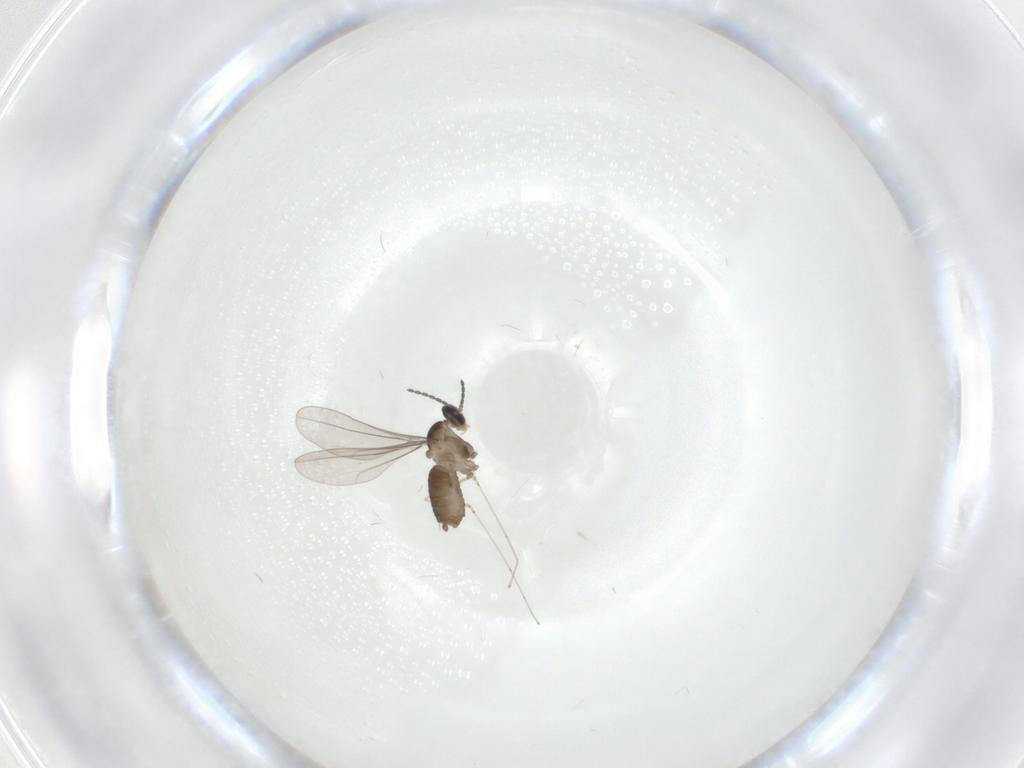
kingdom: Animalia
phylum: Arthropoda
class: Insecta
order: Diptera
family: Cecidomyiidae
